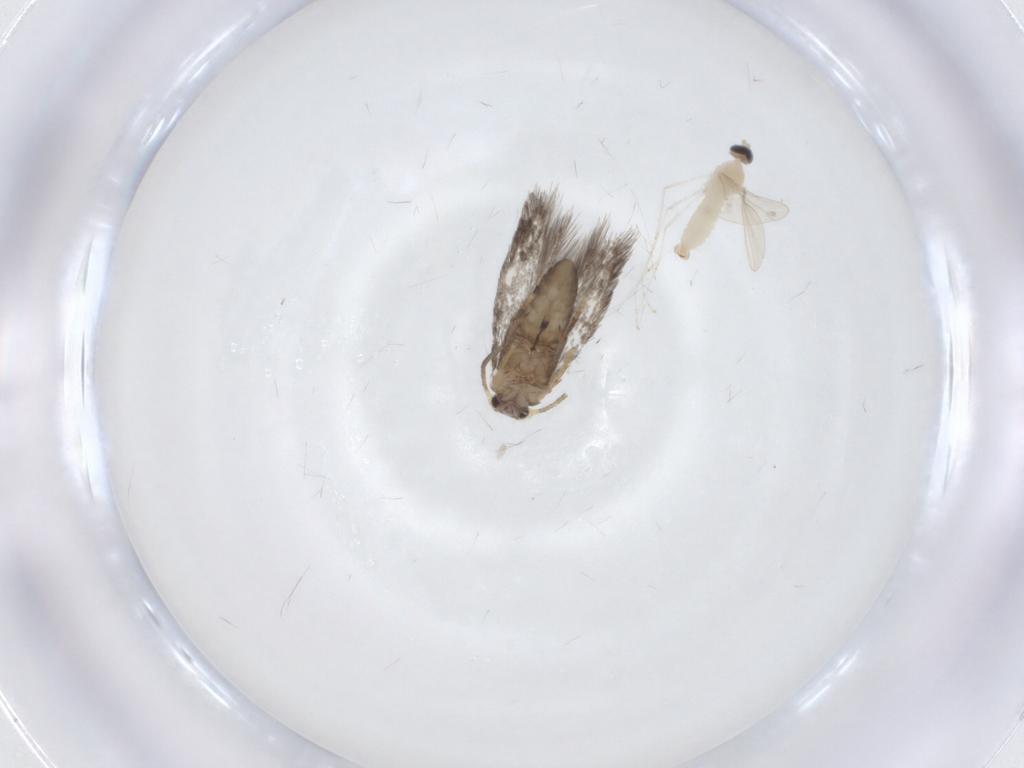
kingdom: Animalia
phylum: Arthropoda
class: Insecta
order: Diptera
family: Cecidomyiidae
